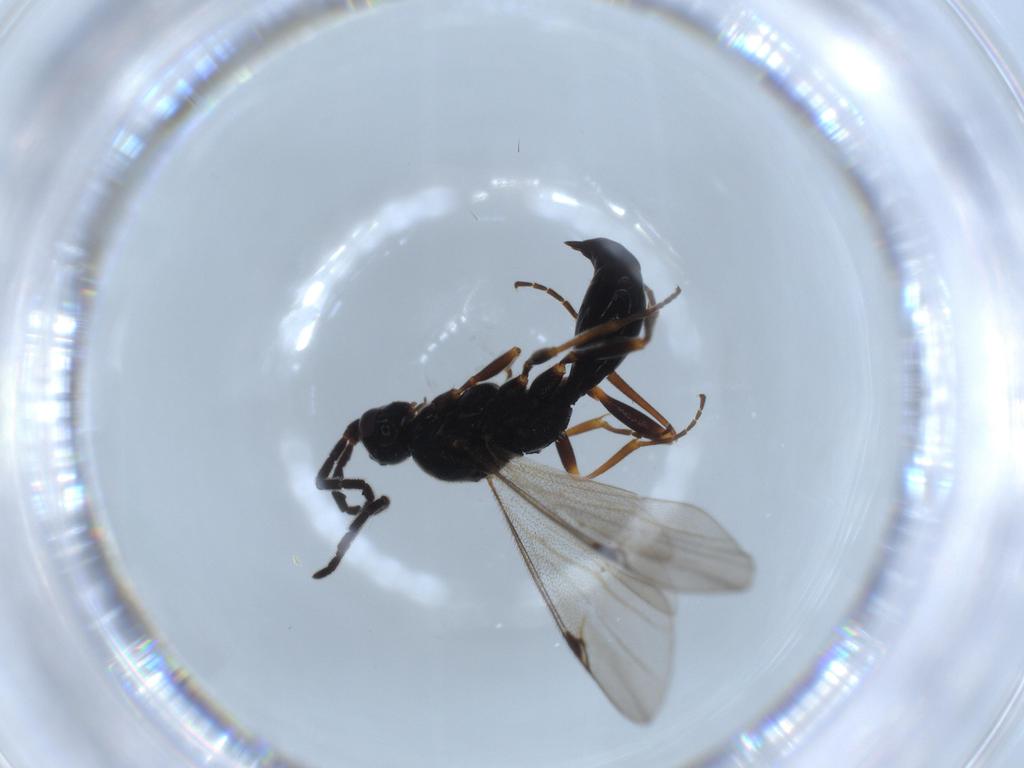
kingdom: Animalia
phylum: Arthropoda
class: Insecta
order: Hymenoptera
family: Proctotrupidae
